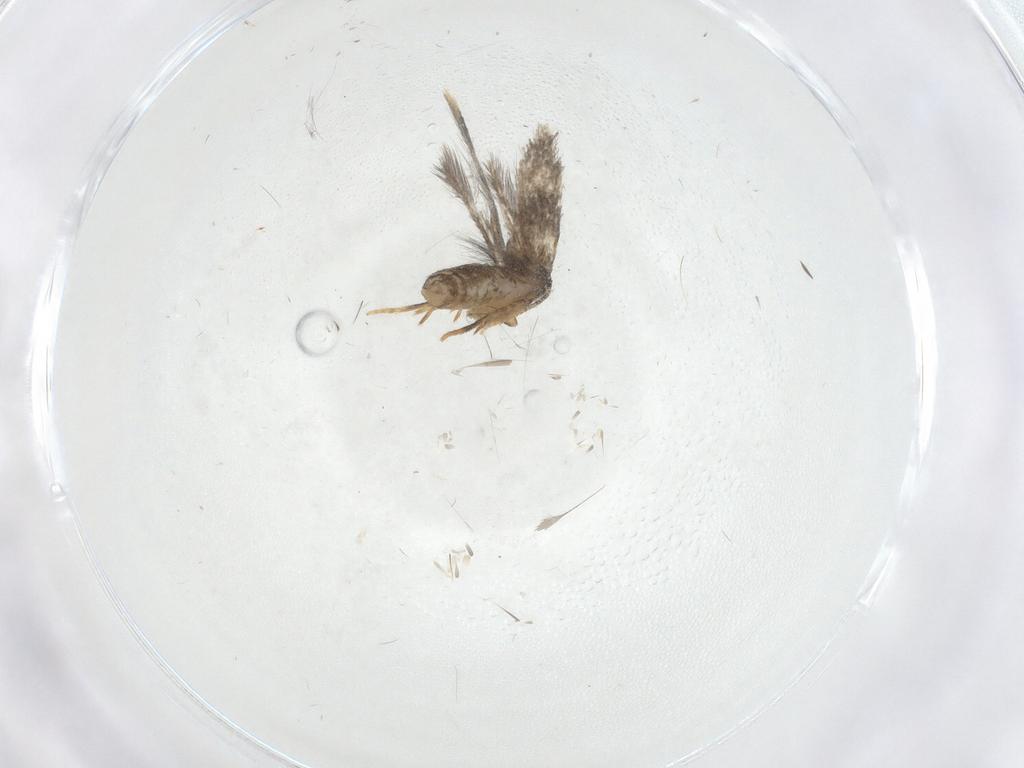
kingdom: Animalia
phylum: Arthropoda
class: Insecta
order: Lepidoptera
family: Nepticulidae
